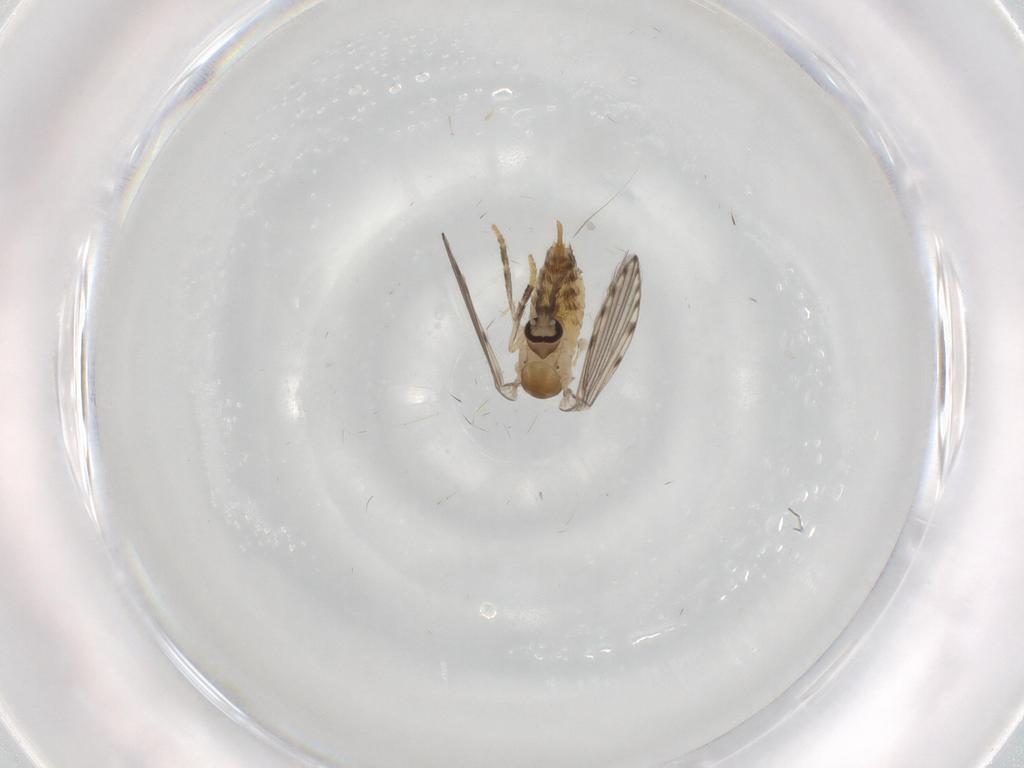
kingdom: Animalia
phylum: Arthropoda
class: Insecta
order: Diptera
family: Psychodidae
